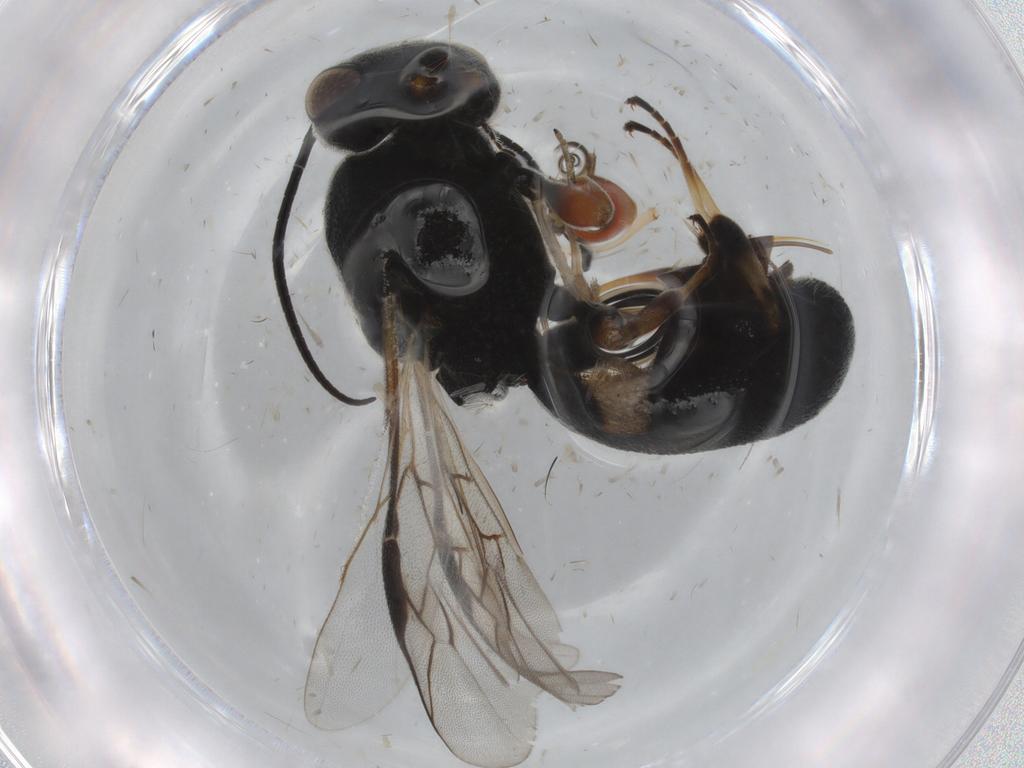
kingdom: Animalia
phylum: Arthropoda
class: Insecta
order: Hymenoptera
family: Braconidae
